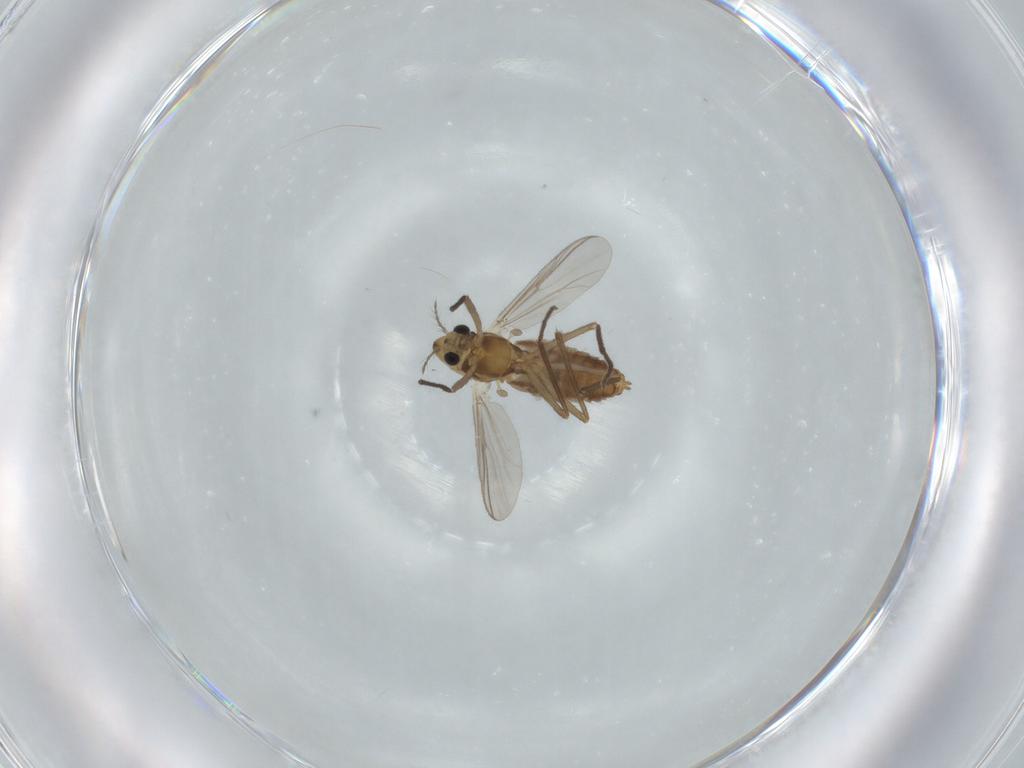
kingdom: Animalia
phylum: Arthropoda
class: Insecta
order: Diptera
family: Chironomidae
